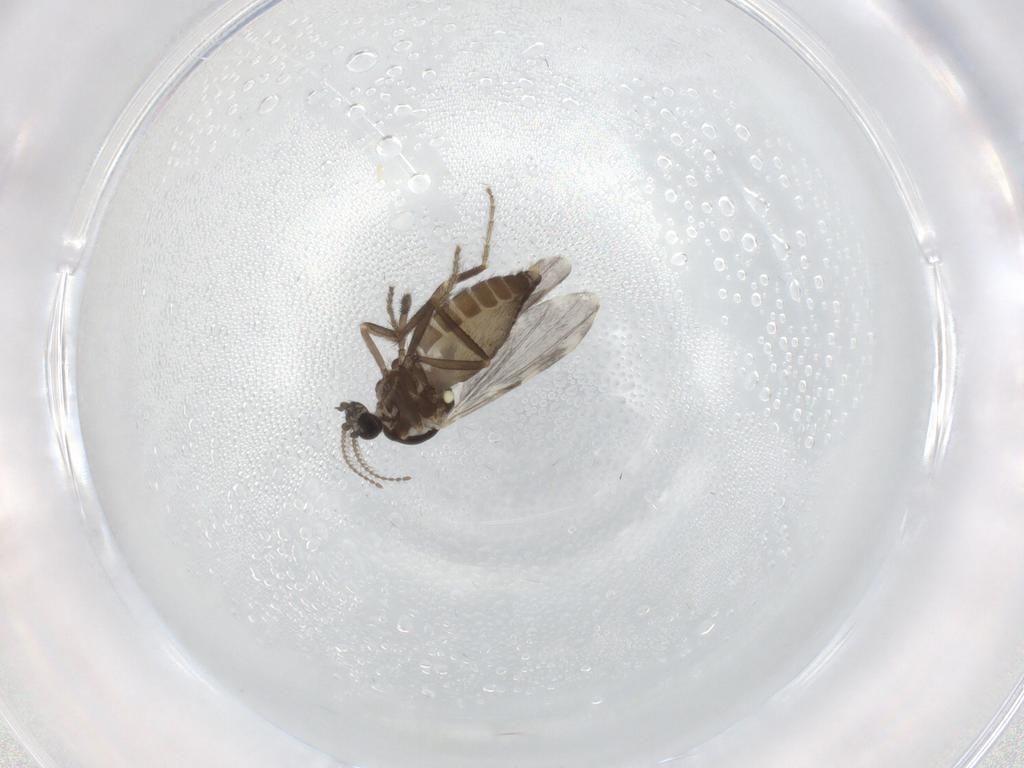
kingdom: Animalia
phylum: Arthropoda
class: Insecta
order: Diptera
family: Ceratopogonidae
